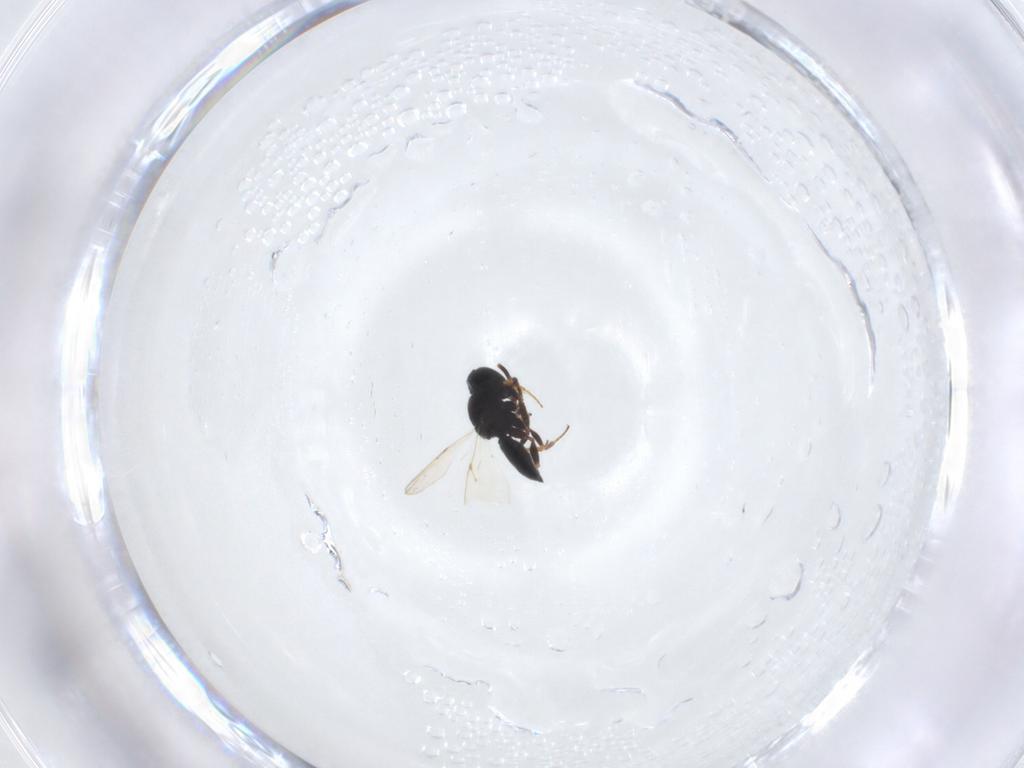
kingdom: Animalia
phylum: Arthropoda
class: Insecta
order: Hymenoptera
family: Scelionidae
